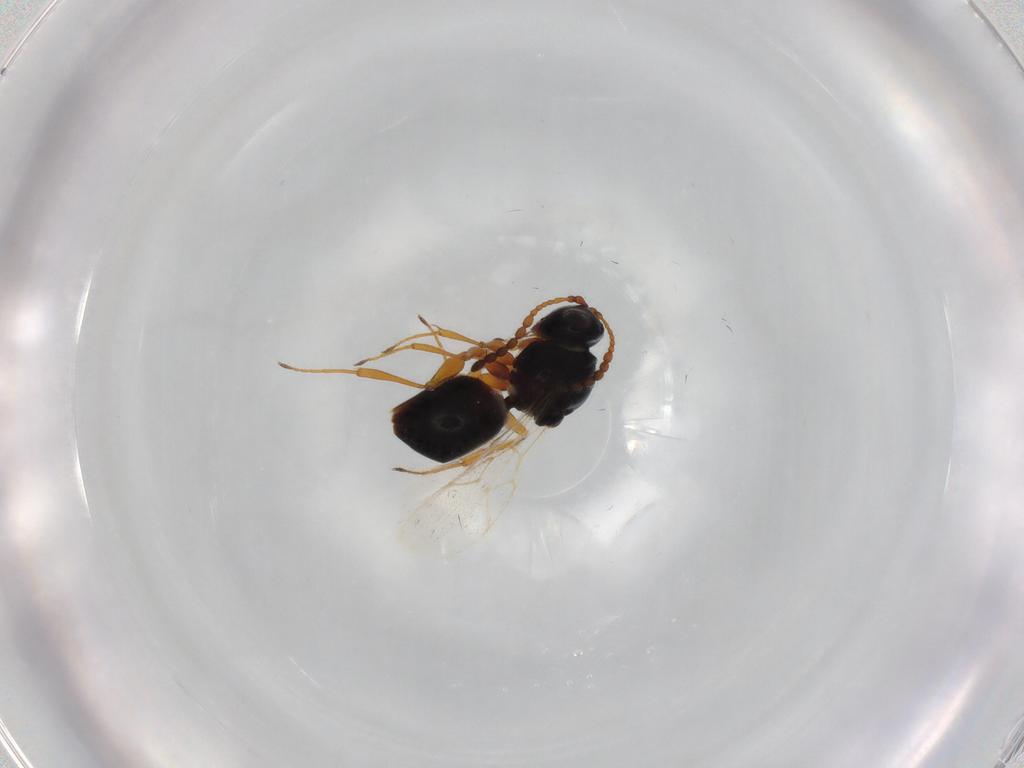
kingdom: Animalia
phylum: Arthropoda
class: Insecta
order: Hymenoptera
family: Figitidae
